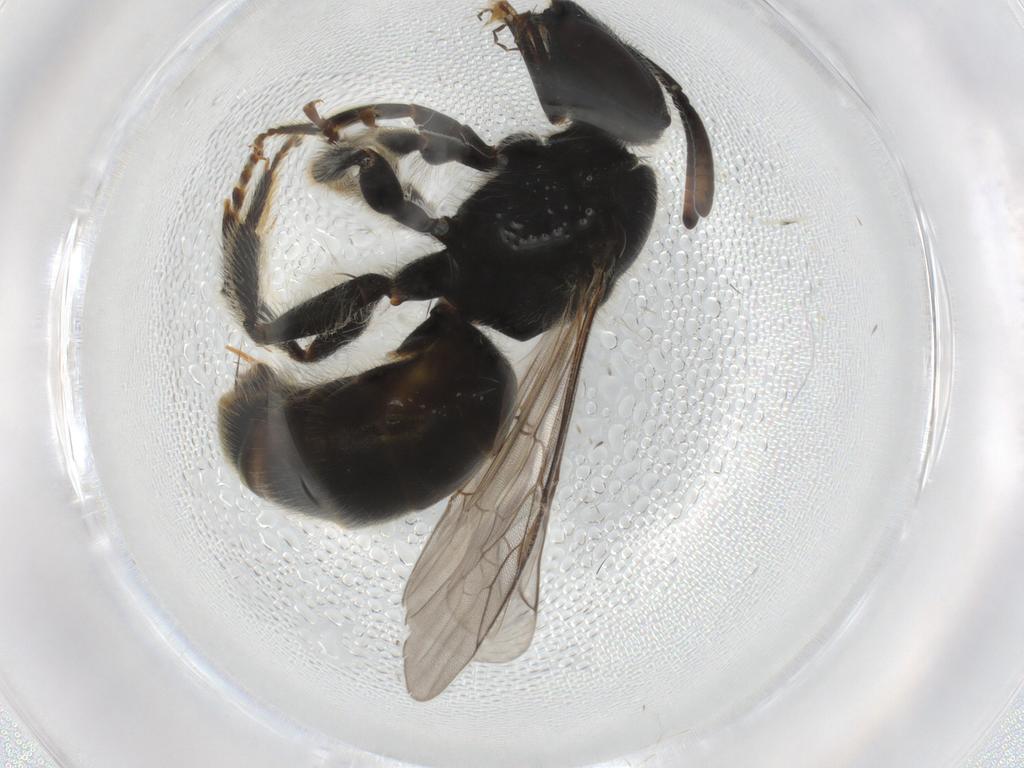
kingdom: Animalia
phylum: Arthropoda
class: Insecta
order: Hymenoptera
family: Halictidae
